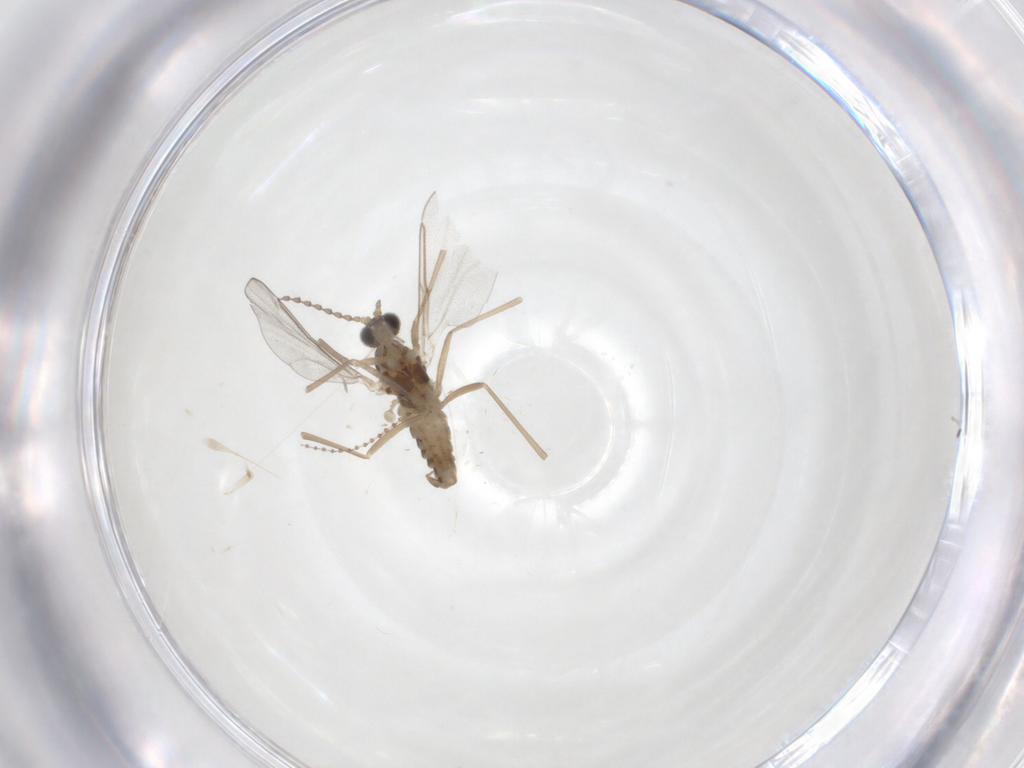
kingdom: Animalia
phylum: Arthropoda
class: Insecta
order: Diptera
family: Cecidomyiidae
